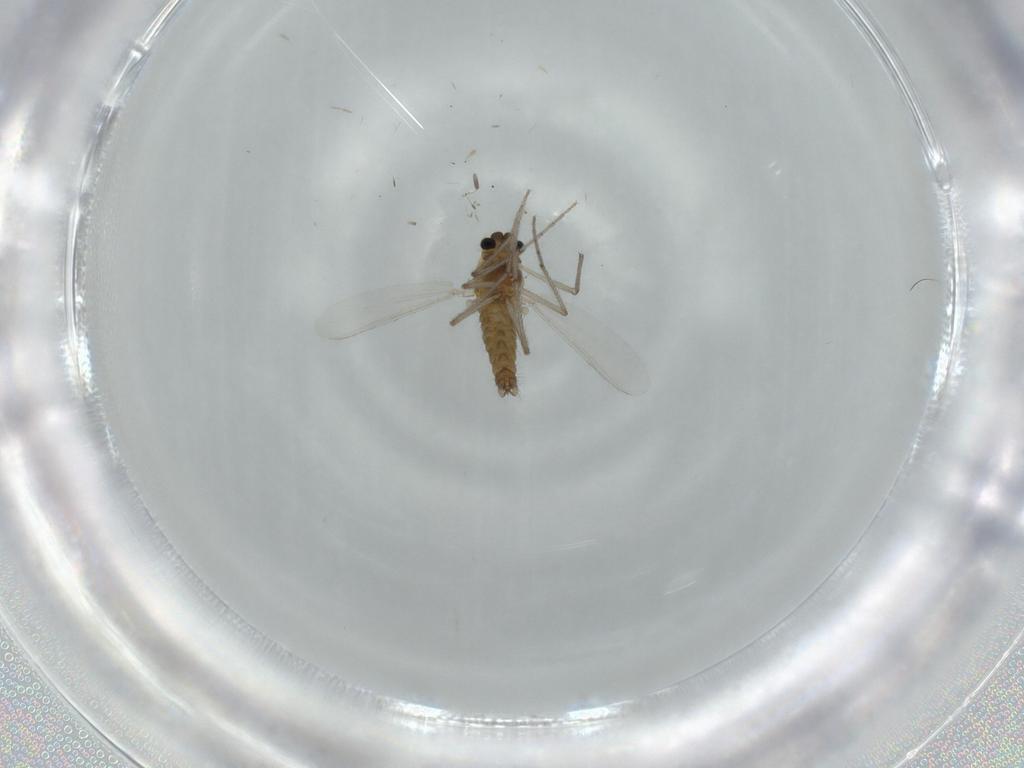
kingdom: Animalia
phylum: Arthropoda
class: Insecta
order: Diptera
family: Chironomidae
